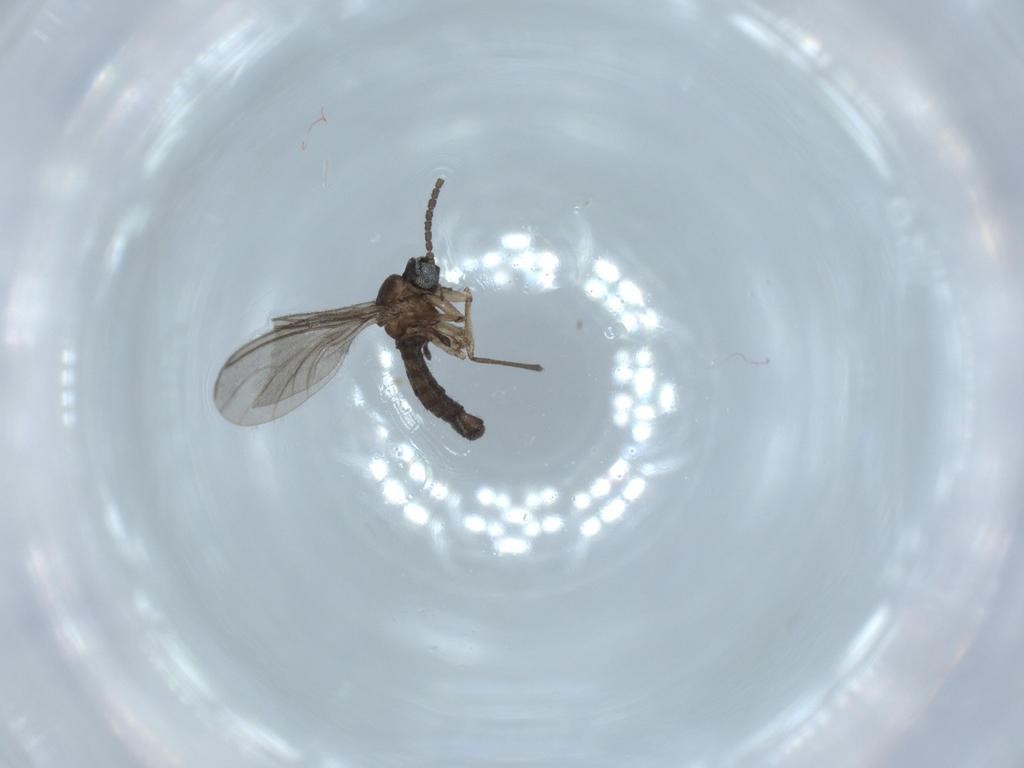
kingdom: Animalia
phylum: Arthropoda
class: Insecta
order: Diptera
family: Sciaridae
